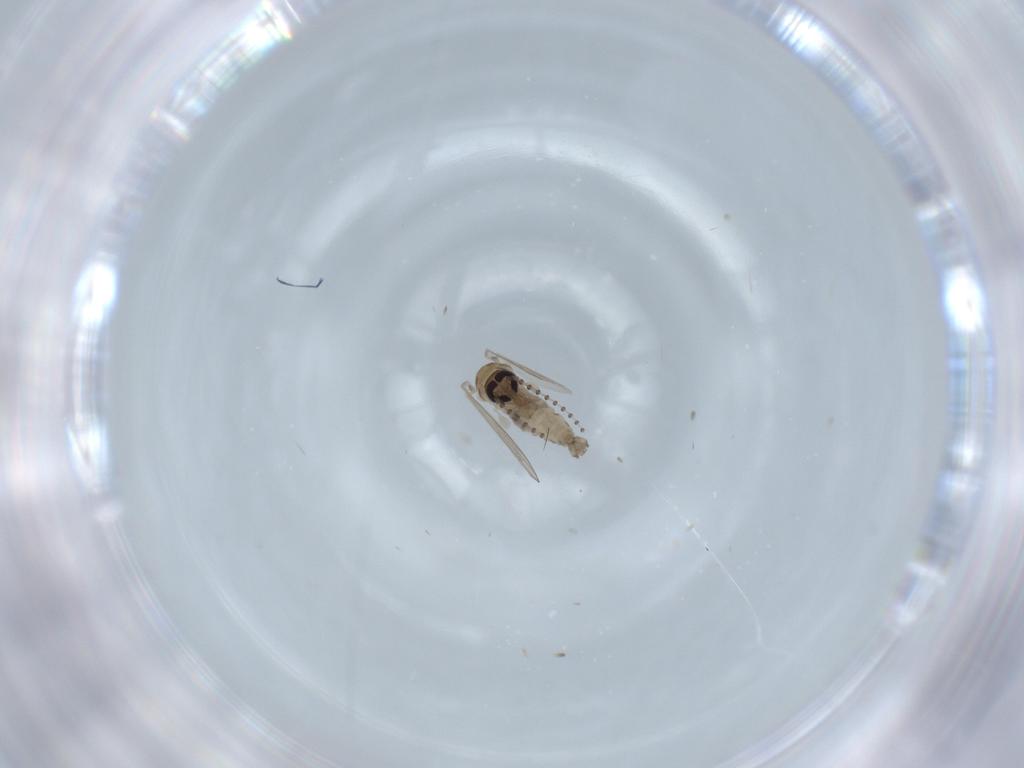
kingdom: Animalia
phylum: Arthropoda
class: Insecta
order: Diptera
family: Cecidomyiidae
